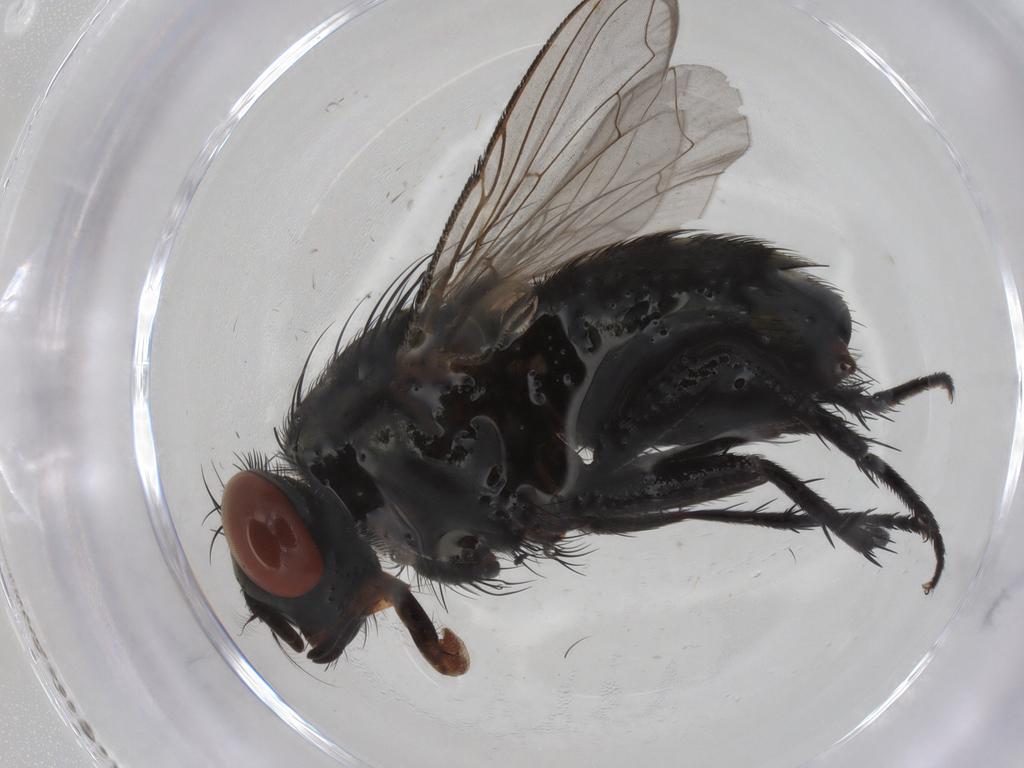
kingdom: Animalia
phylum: Arthropoda
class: Insecta
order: Diptera
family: Sarcophagidae
